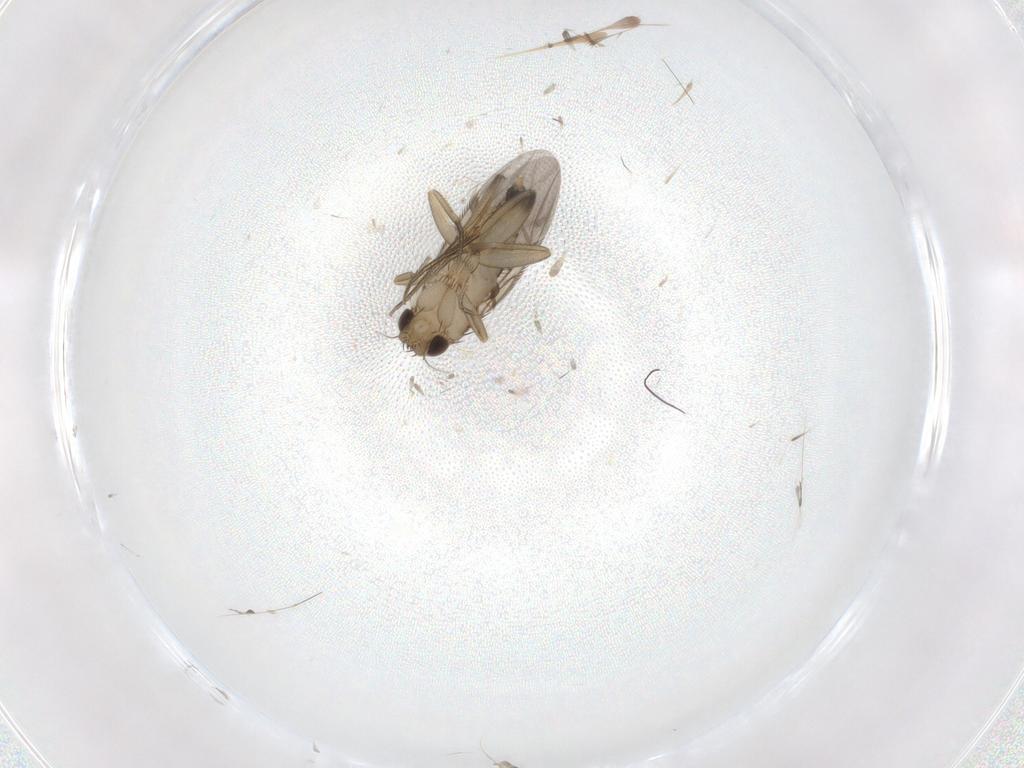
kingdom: Animalia
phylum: Arthropoda
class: Insecta
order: Diptera
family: Phoridae
